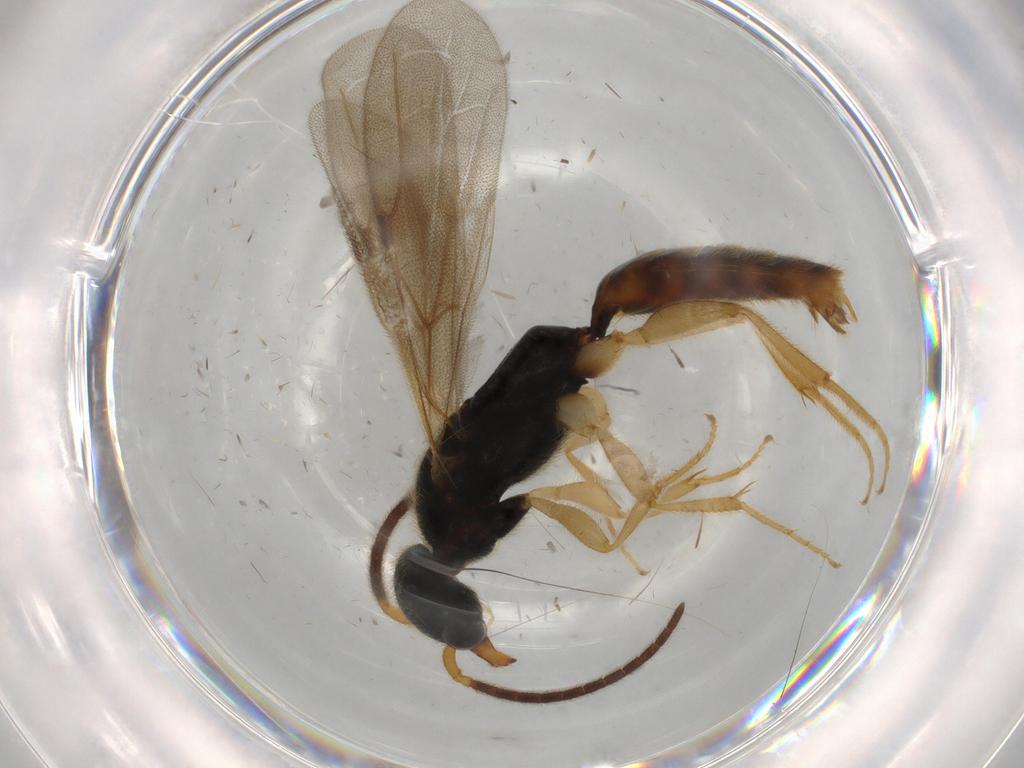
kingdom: Animalia
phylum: Arthropoda
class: Insecta
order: Hymenoptera
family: Bethylidae
